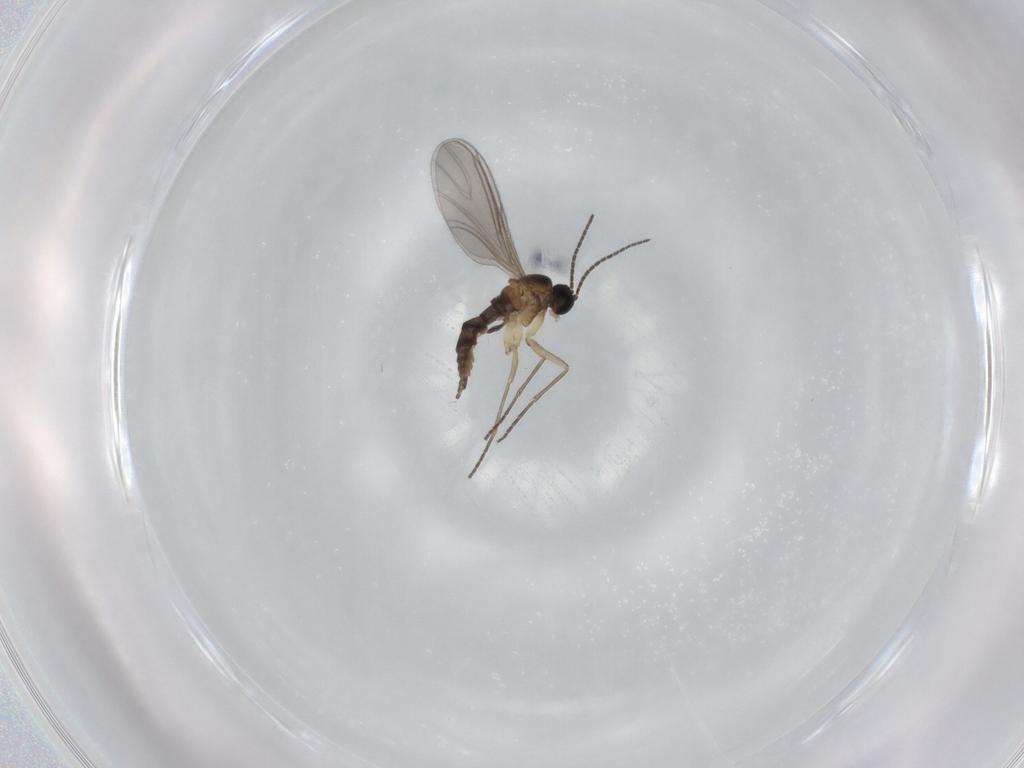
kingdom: Animalia
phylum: Arthropoda
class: Insecta
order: Diptera
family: Sciaridae
